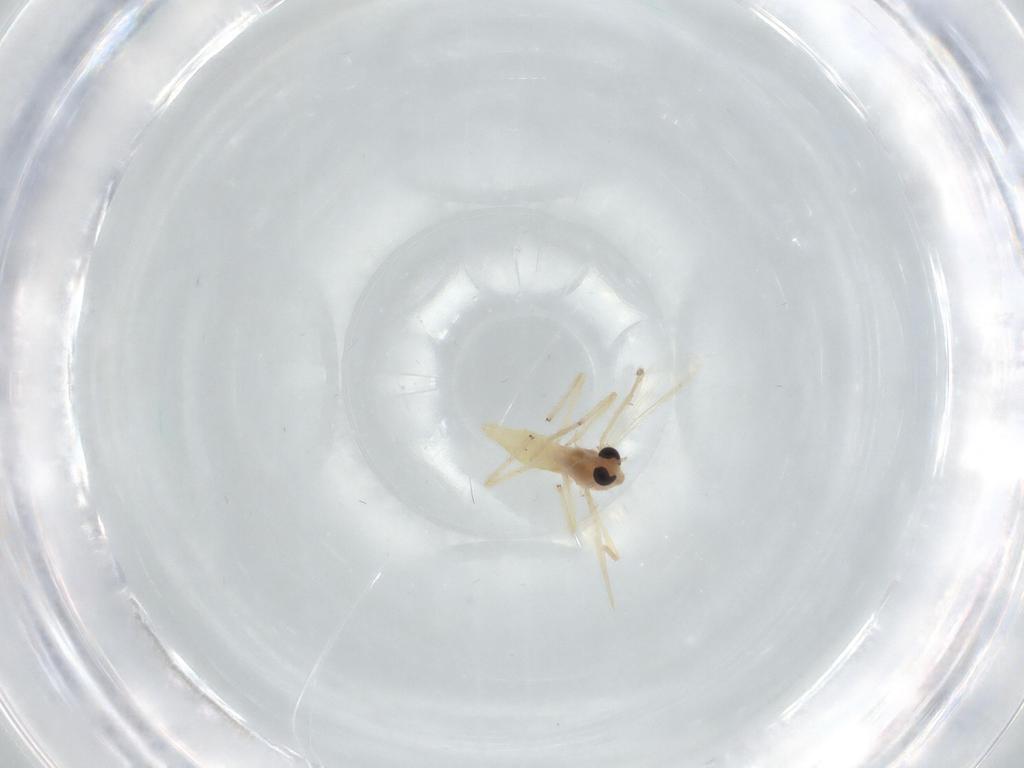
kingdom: Animalia
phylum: Arthropoda
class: Insecta
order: Diptera
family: Chironomidae
